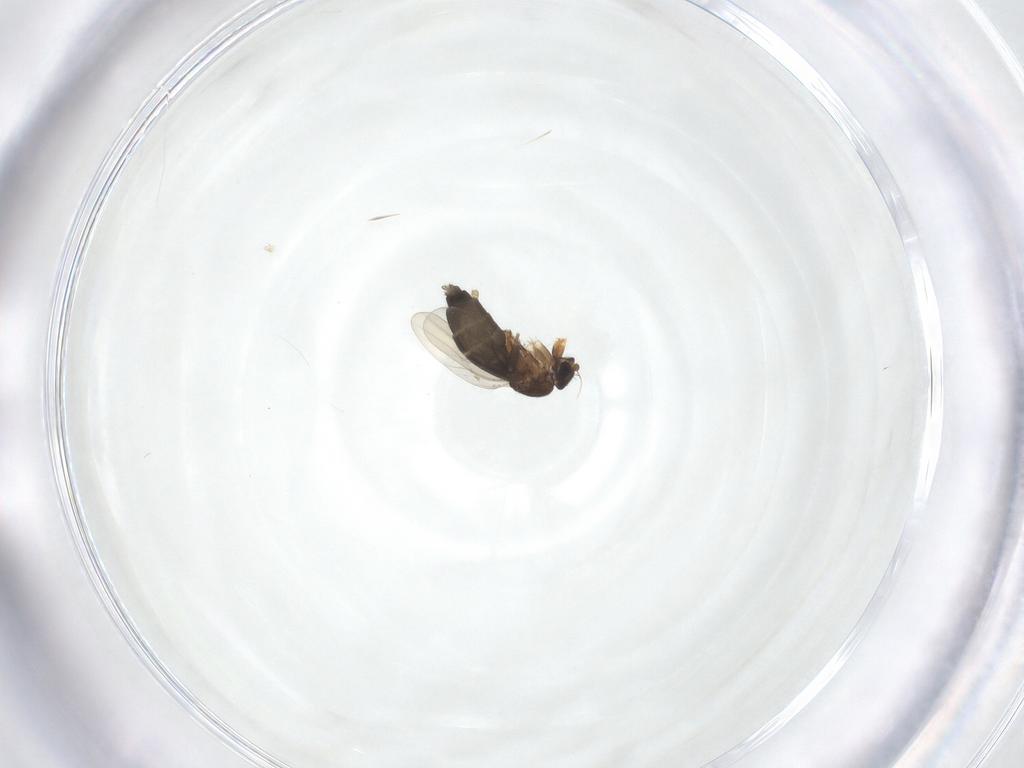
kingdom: Animalia
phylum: Arthropoda
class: Insecta
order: Diptera
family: Phoridae
